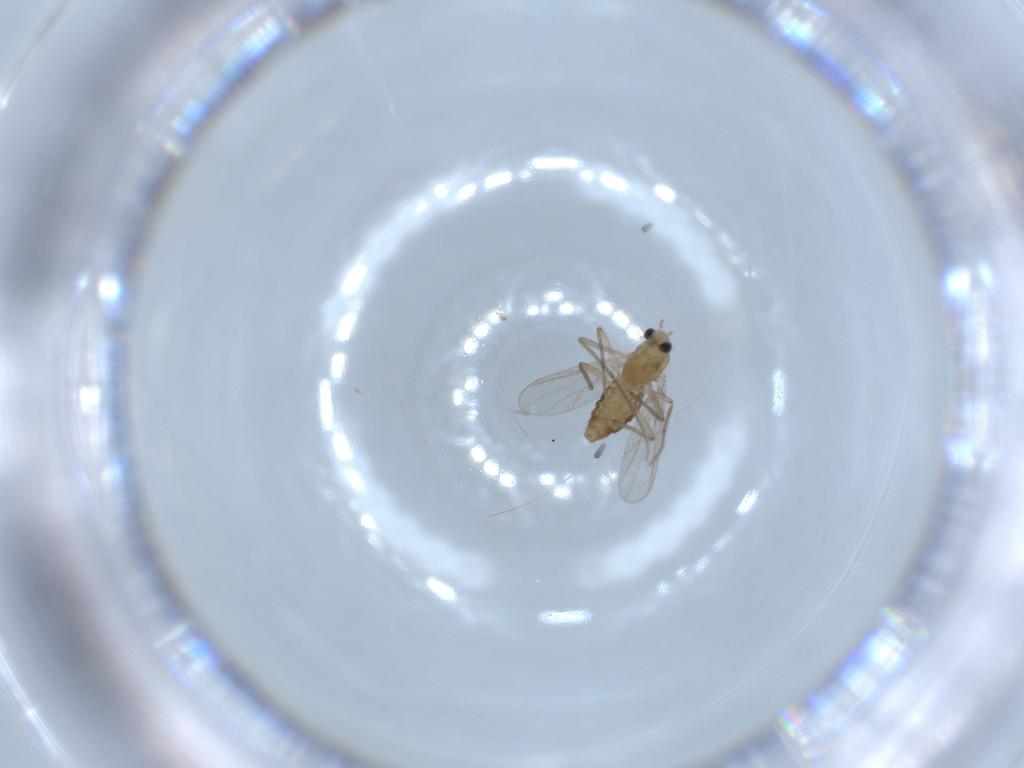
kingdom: Animalia
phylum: Arthropoda
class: Insecta
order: Diptera
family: Chironomidae
